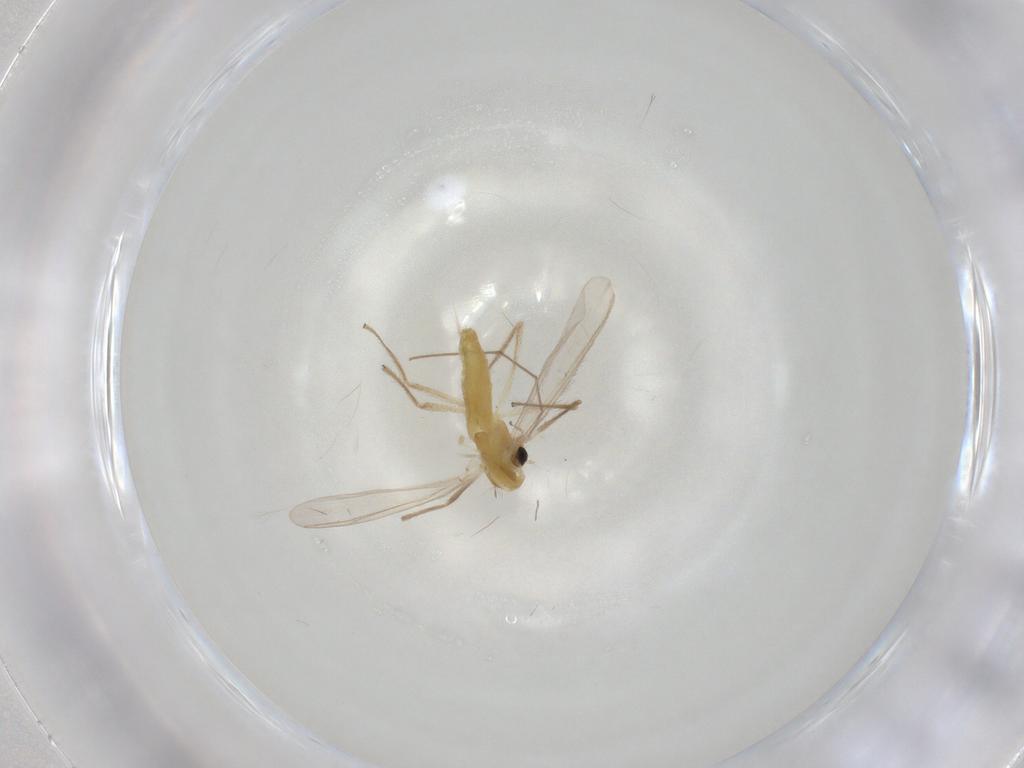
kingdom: Animalia
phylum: Arthropoda
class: Insecta
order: Diptera
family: Chironomidae
